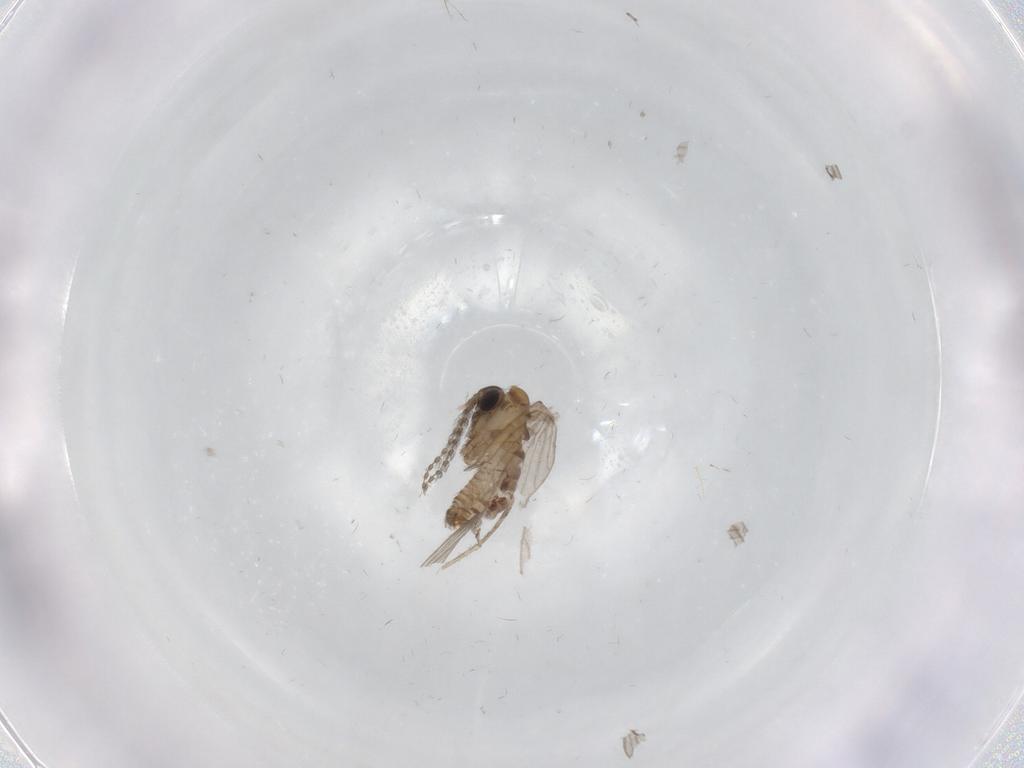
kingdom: Animalia
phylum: Arthropoda
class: Insecta
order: Diptera
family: Psychodidae
